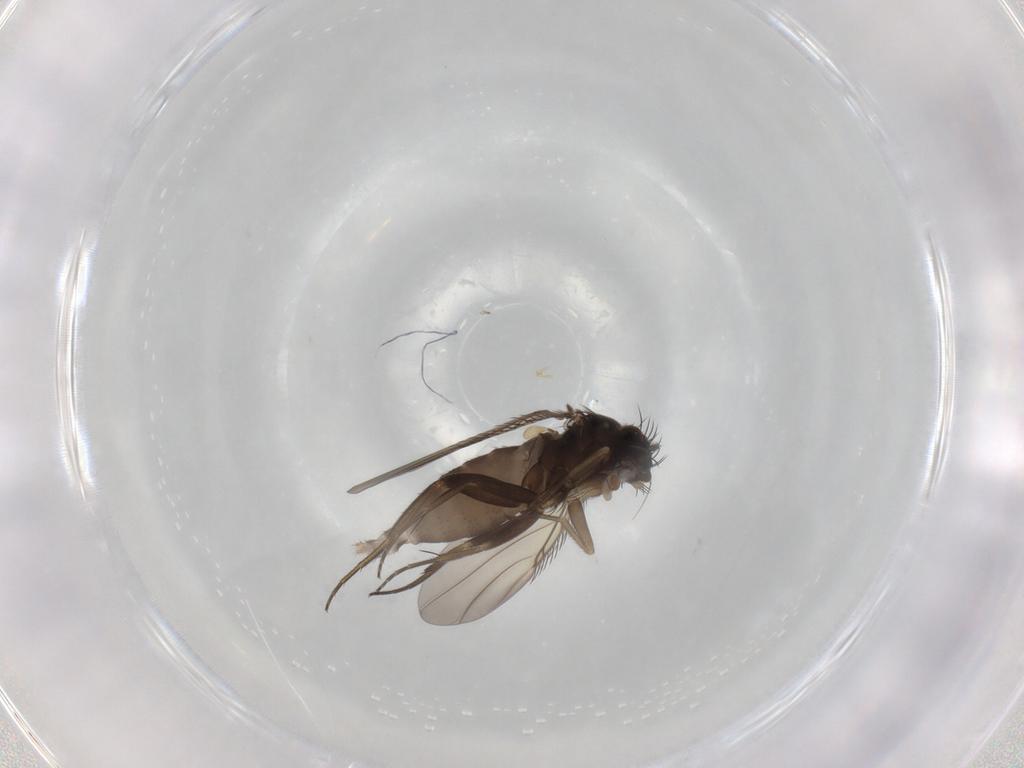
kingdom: Animalia
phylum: Arthropoda
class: Insecta
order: Diptera
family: Phoridae
